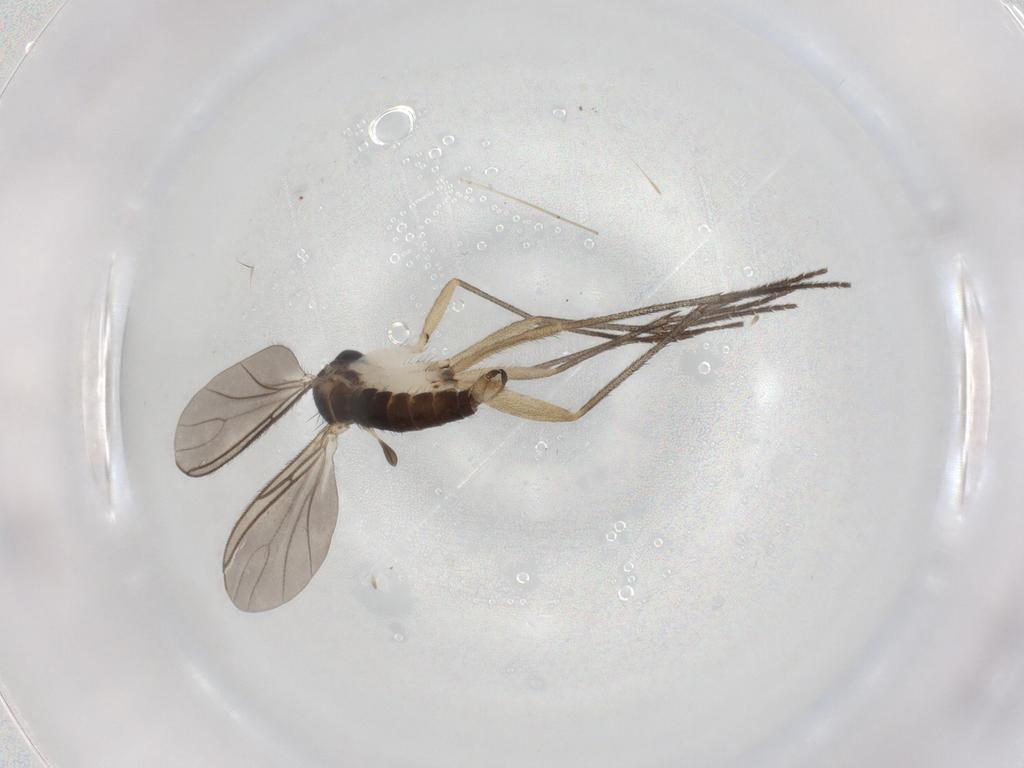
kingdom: Animalia
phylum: Arthropoda
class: Insecta
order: Diptera
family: Sciaridae
